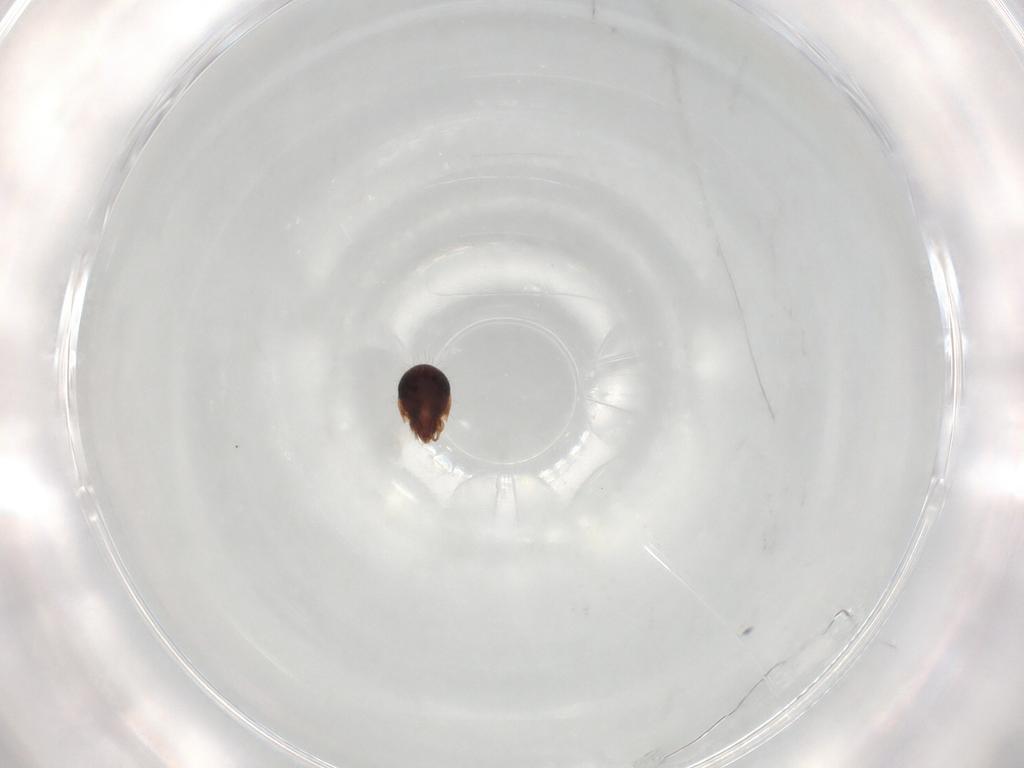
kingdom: Animalia
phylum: Arthropoda
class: Arachnida
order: Sarcoptiformes
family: Ceratozetidae
